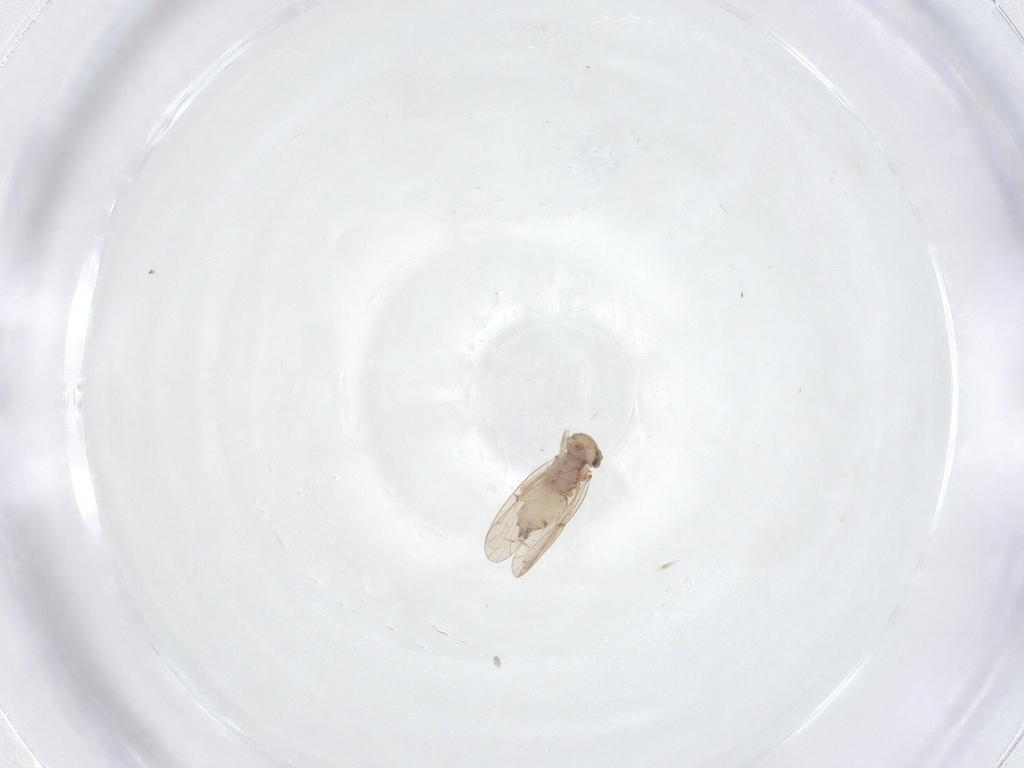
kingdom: Animalia
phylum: Arthropoda
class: Insecta
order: Psocodea
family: Ectopsocidae
